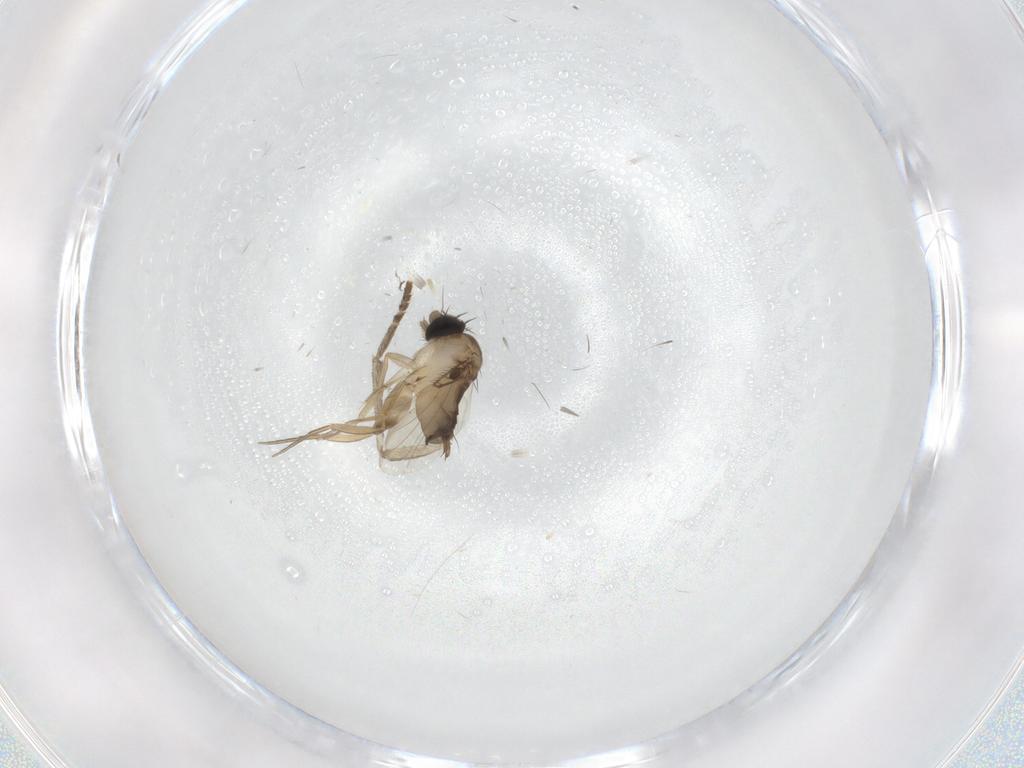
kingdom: Animalia
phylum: Arthropoda
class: Insecta
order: Diptera
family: Psychodidae
